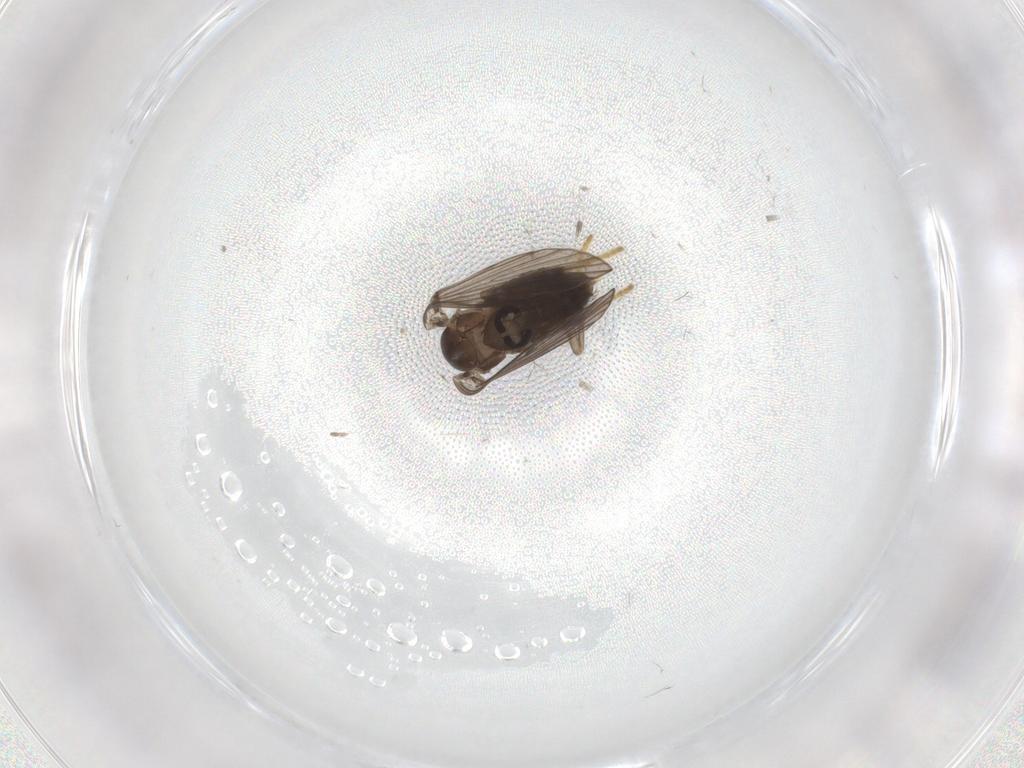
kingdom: Animalia
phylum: Arthropoda
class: Insecta
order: Diptera
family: Psychodidae
